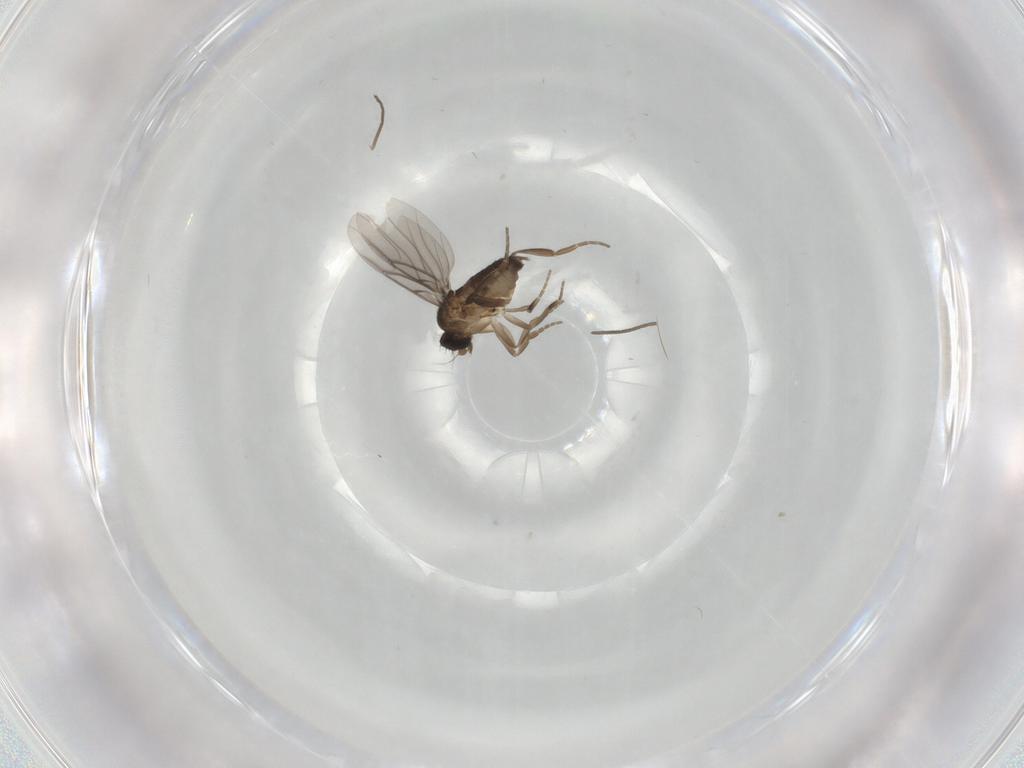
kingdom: Animalia
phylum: Arthropoda
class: Insecta
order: Diptera
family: Phoridae
